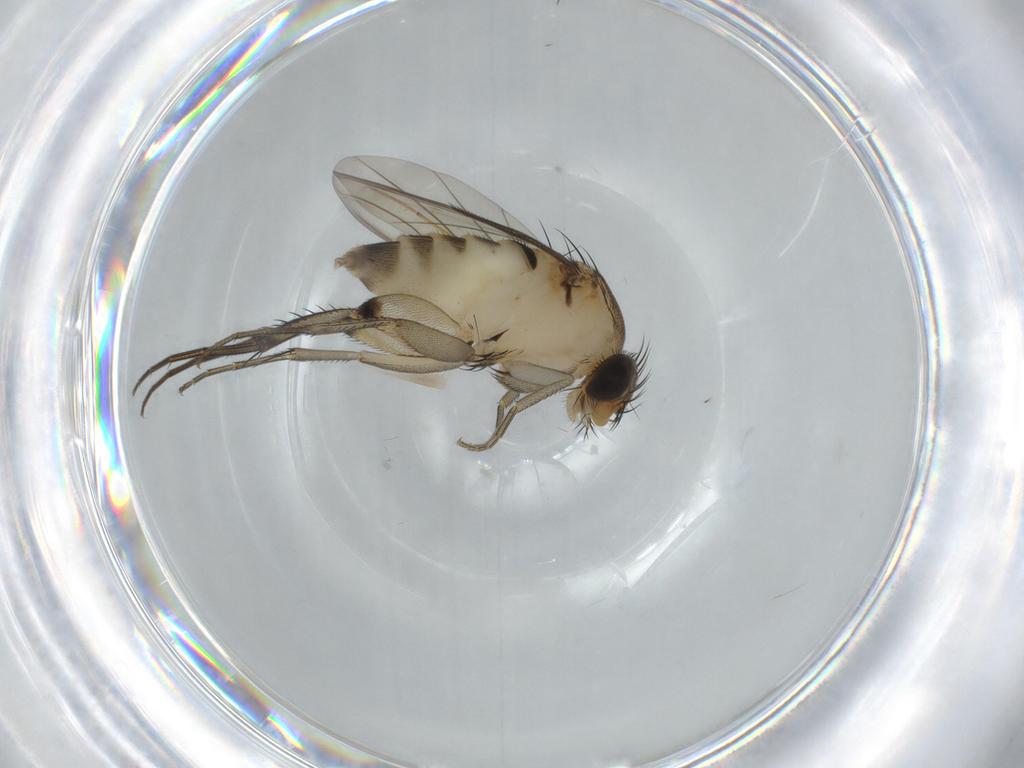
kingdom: Animalia
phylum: Arthropoda
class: Insecta
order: Diptera
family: Phoridae
